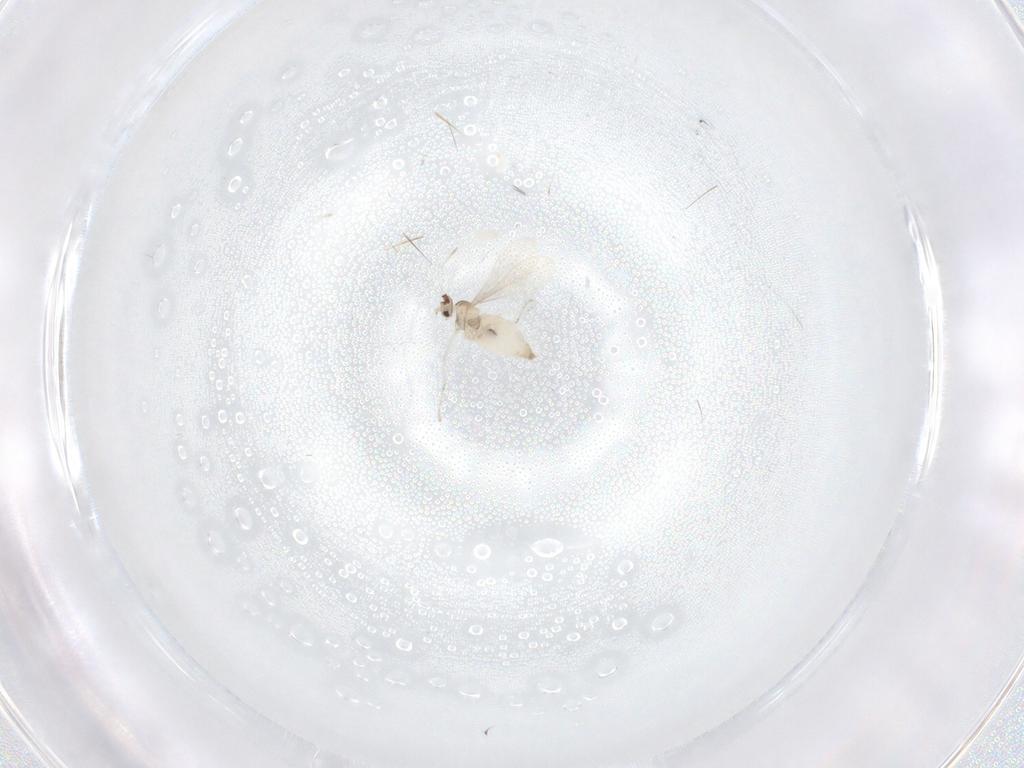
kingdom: Animalia
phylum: Arthropoda
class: Insecta
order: Diptera
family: Cecidomyiidae
